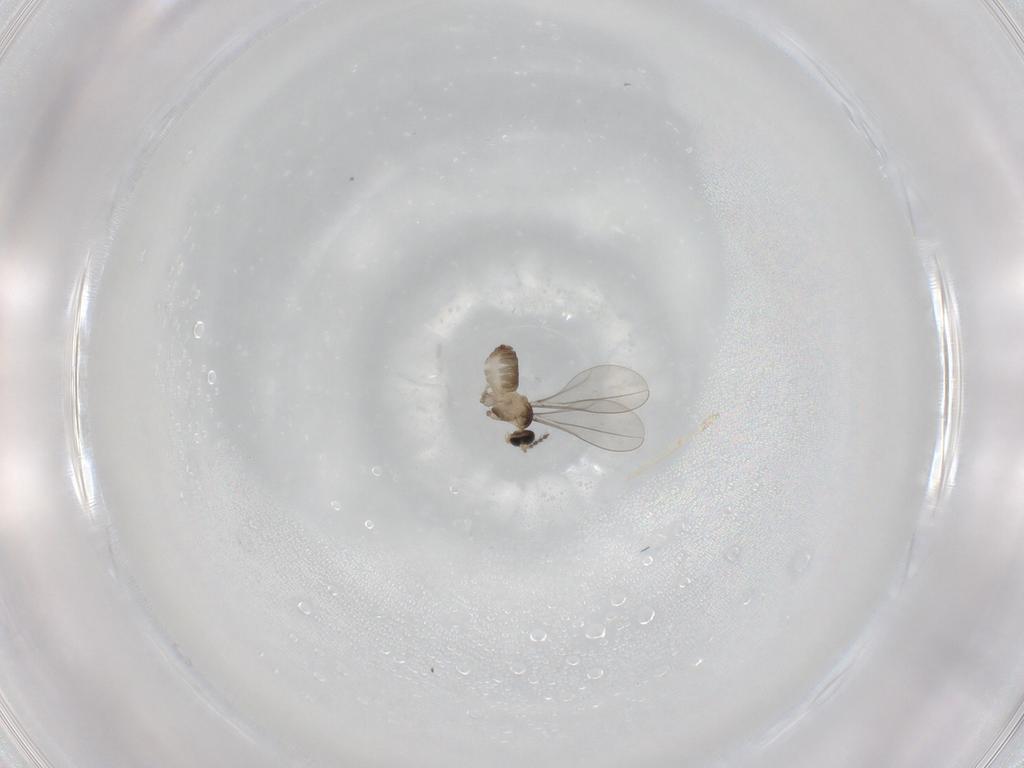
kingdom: Animalia
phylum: Arthropoda
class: Insecta
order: Diptera
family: Cecidomyiidae
